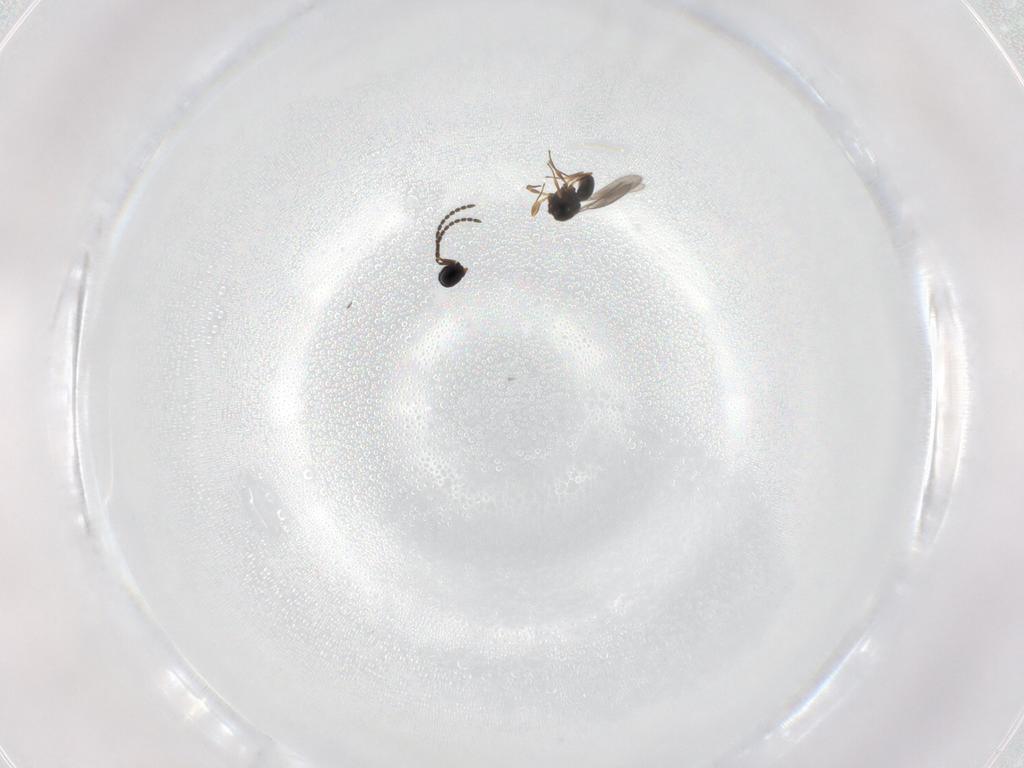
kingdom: Animalia
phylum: Arthropoda
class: Insecta
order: Hymenoptera
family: Scelionidae
